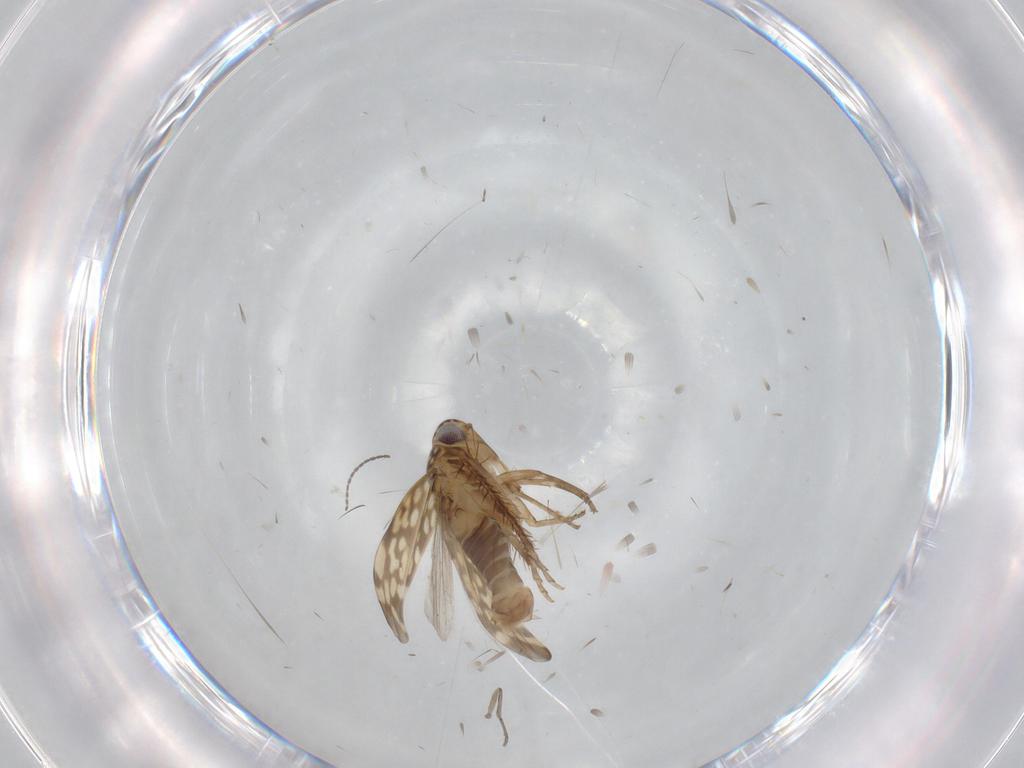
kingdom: Animalia
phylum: Arthropoda
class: Insecta
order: Hemiptera
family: Cicadellidae
